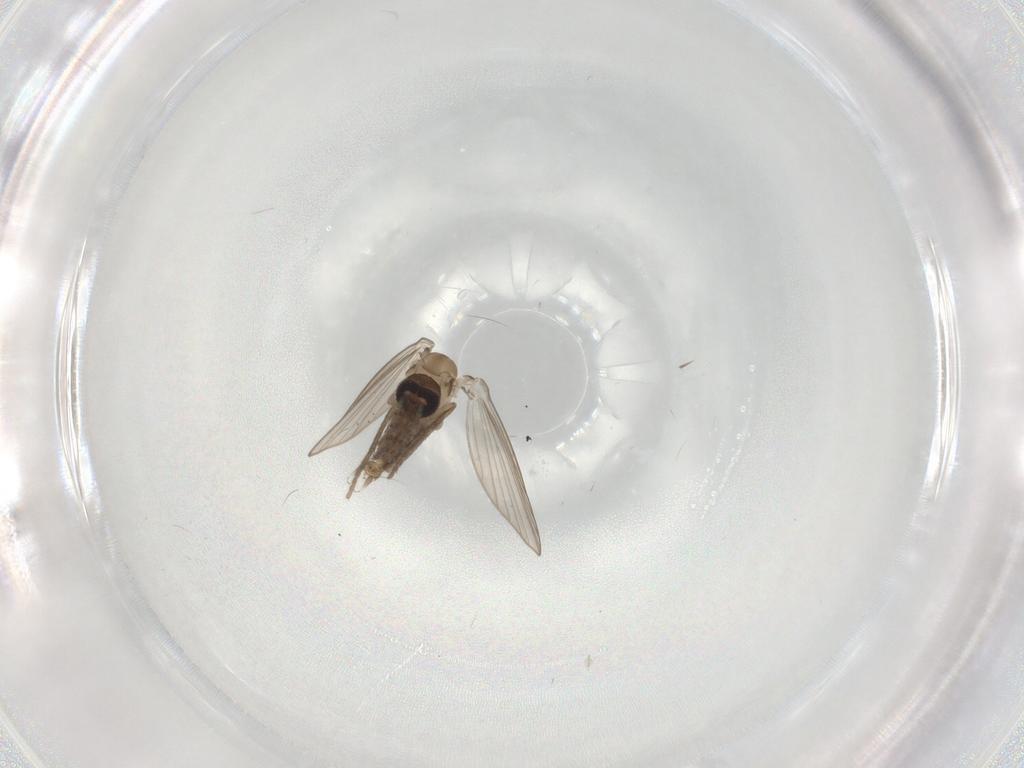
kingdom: Animalia
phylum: Arthropoda
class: Insecta
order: Diptera
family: Psychodidae
